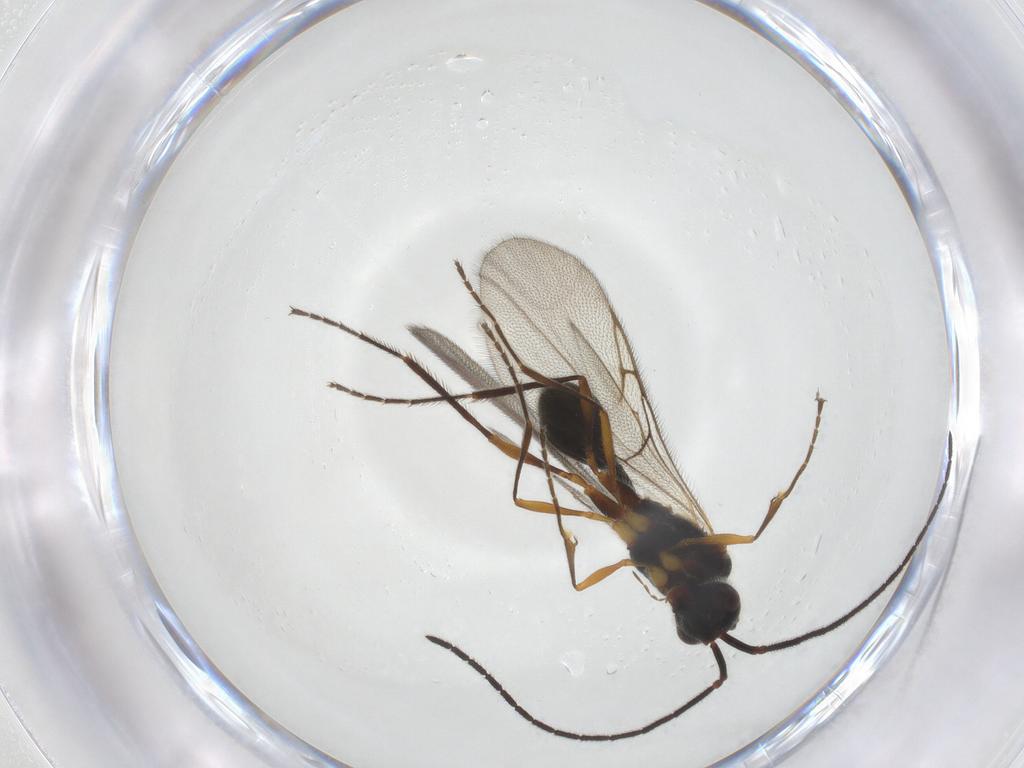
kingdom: Animalia
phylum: Arthropoda
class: Insecta
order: Hymenoptera
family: Diapriidae
